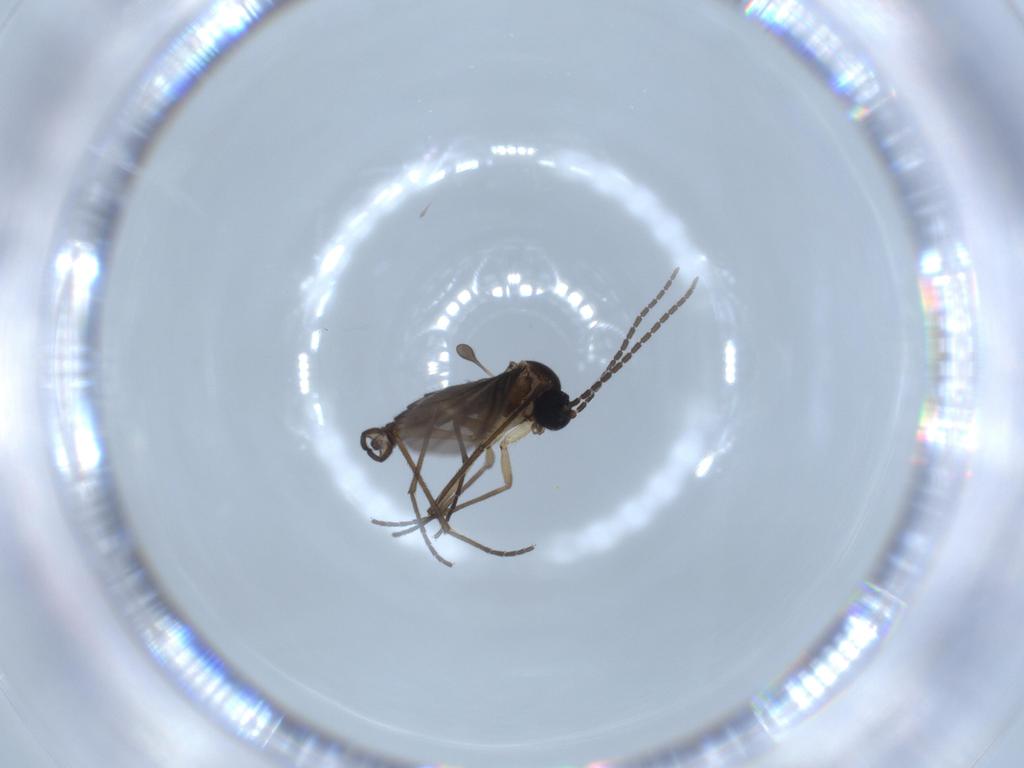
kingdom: Animalia
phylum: Arthropoda
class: Insecta
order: Diptera
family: Sciaridae
